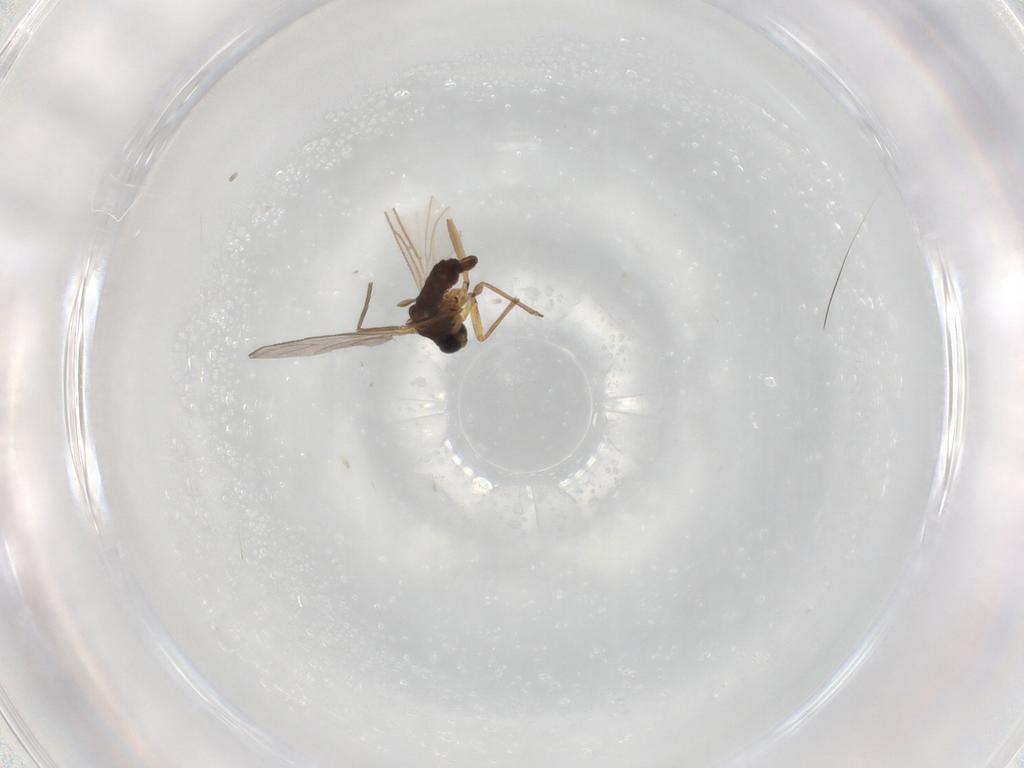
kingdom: Animalia
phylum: Arthropoda
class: Insecta
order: Diptera
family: Sciaridae
